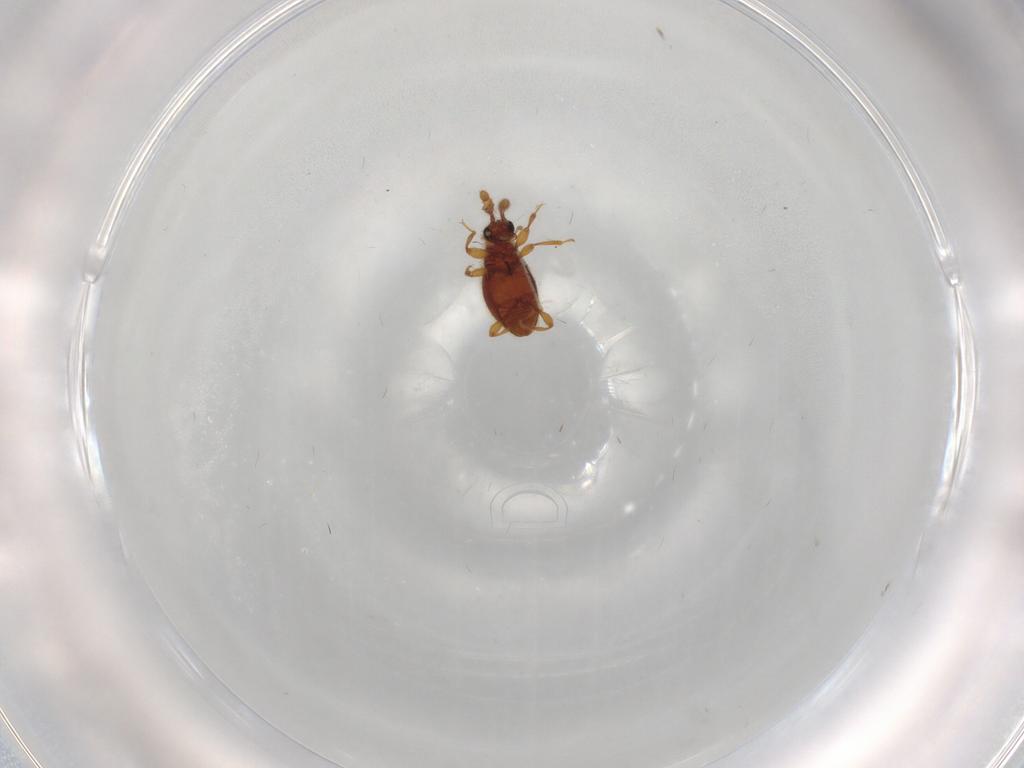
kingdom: Animalia
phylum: Arthropoda
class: Insecta
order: Coleoptera
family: Staphylinidae
